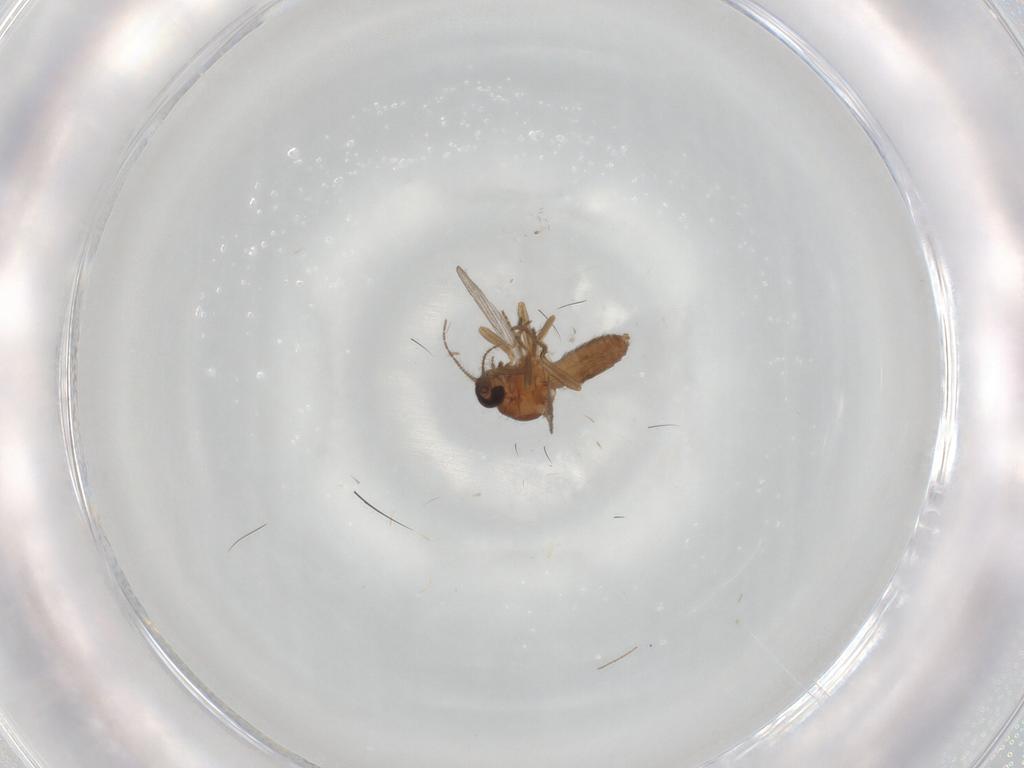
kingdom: Animalia
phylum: Arthropoda
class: Insecta
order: Diptera
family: Ceratopogonidae
